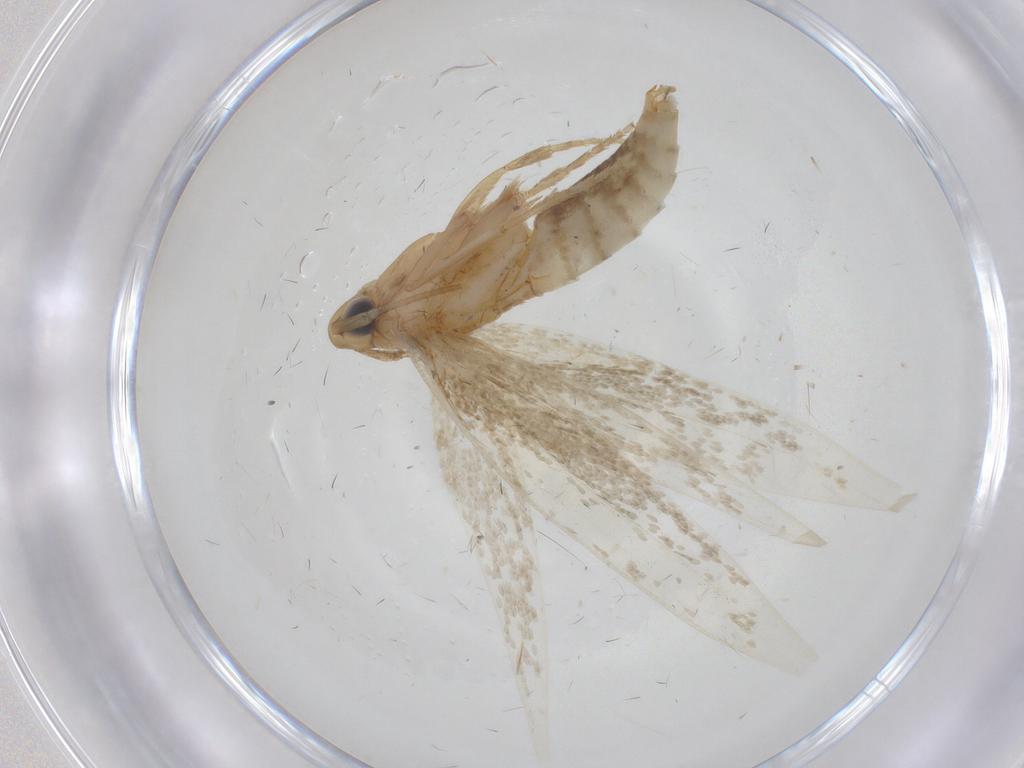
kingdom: Animalia
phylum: Arthropoda
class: Insecta
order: Lepidoptera
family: Tineidae
